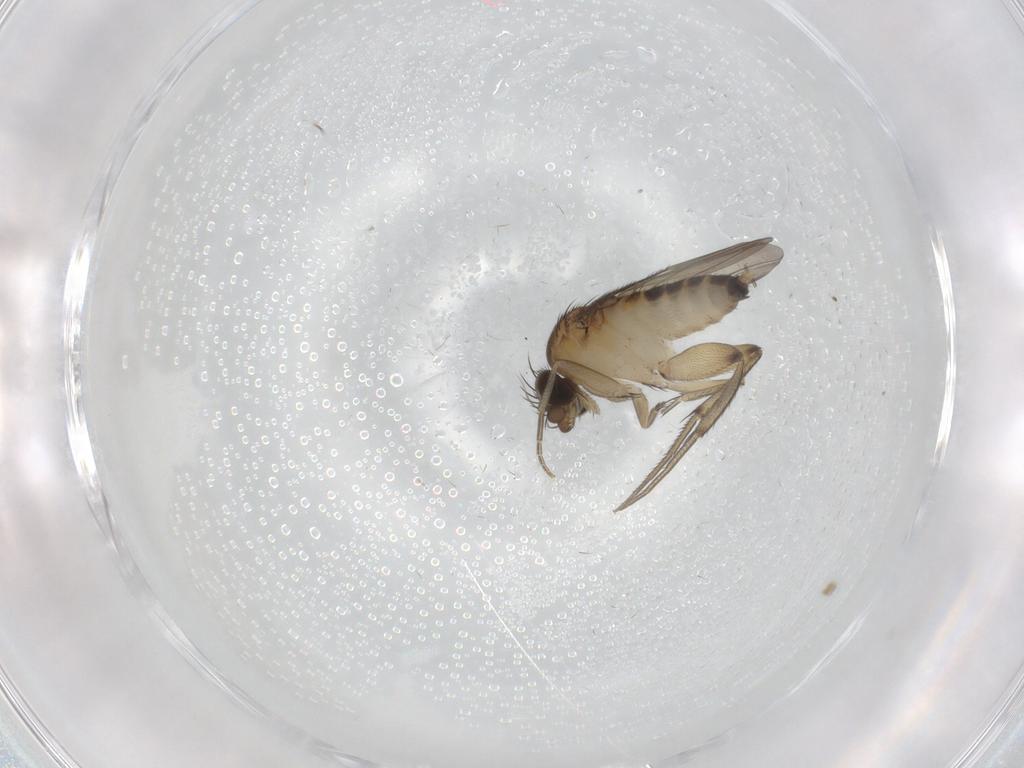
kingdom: Animalia
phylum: Arthropoda
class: Insecta
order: Diptera
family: Phoridae
